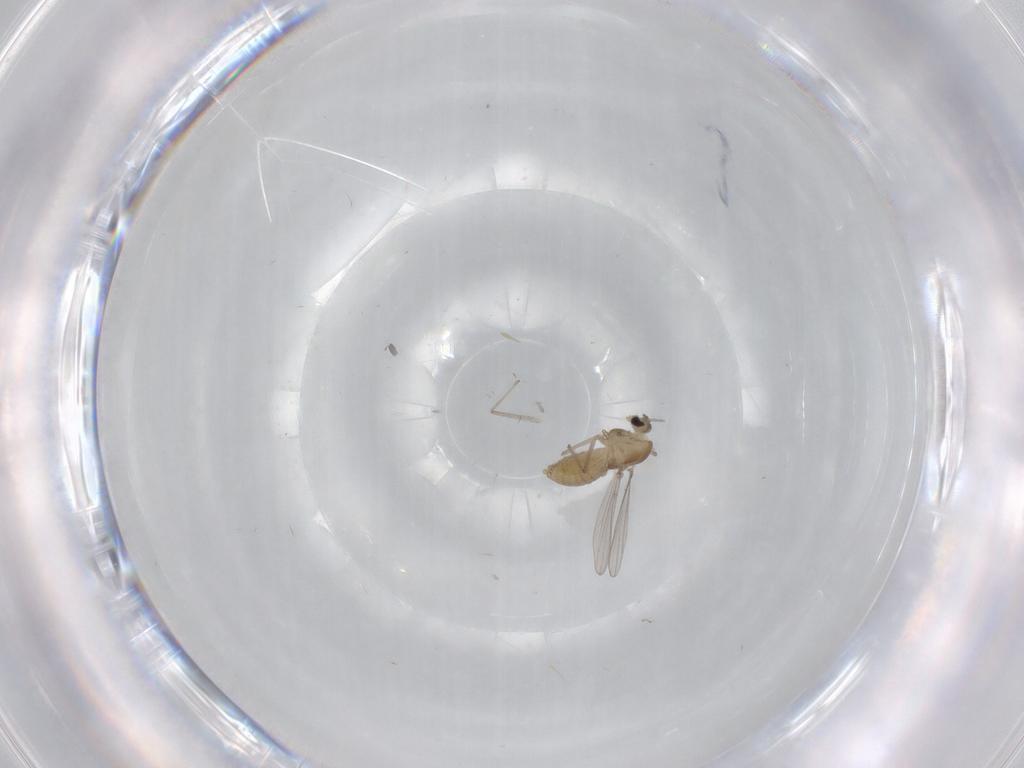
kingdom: Animalia
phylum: Arthropoda
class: Insecta
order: Diptera
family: Chironomidae
